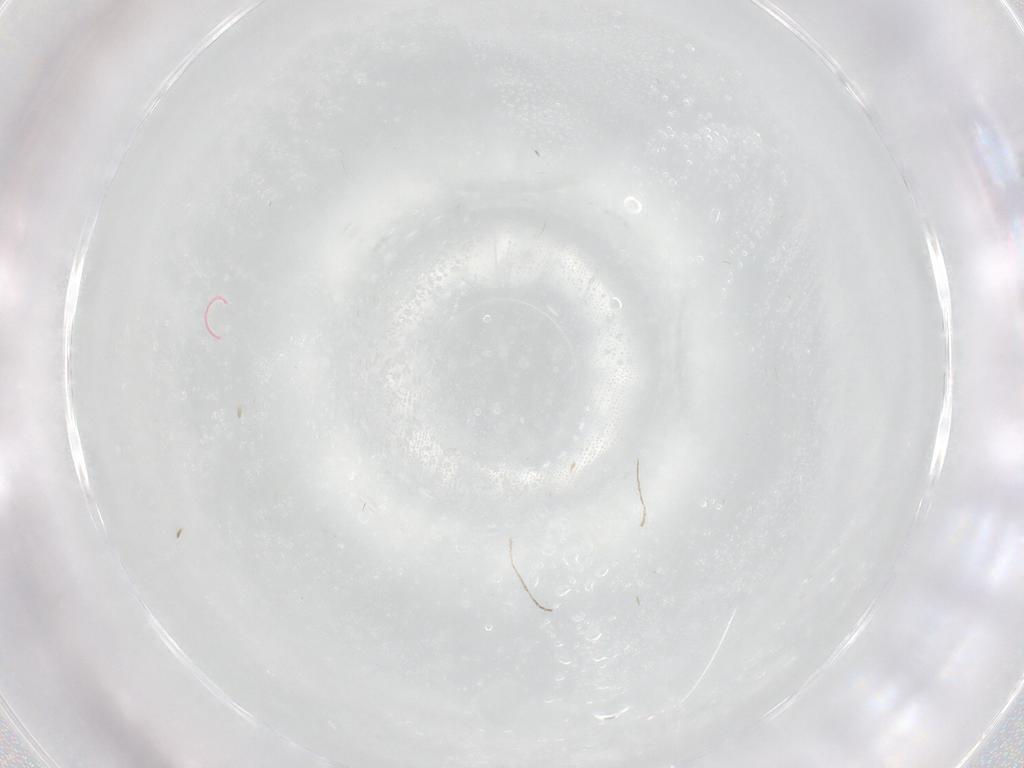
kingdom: Animalia
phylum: Arthropoda
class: Insecta
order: Diptera
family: Cecidomyiidae
